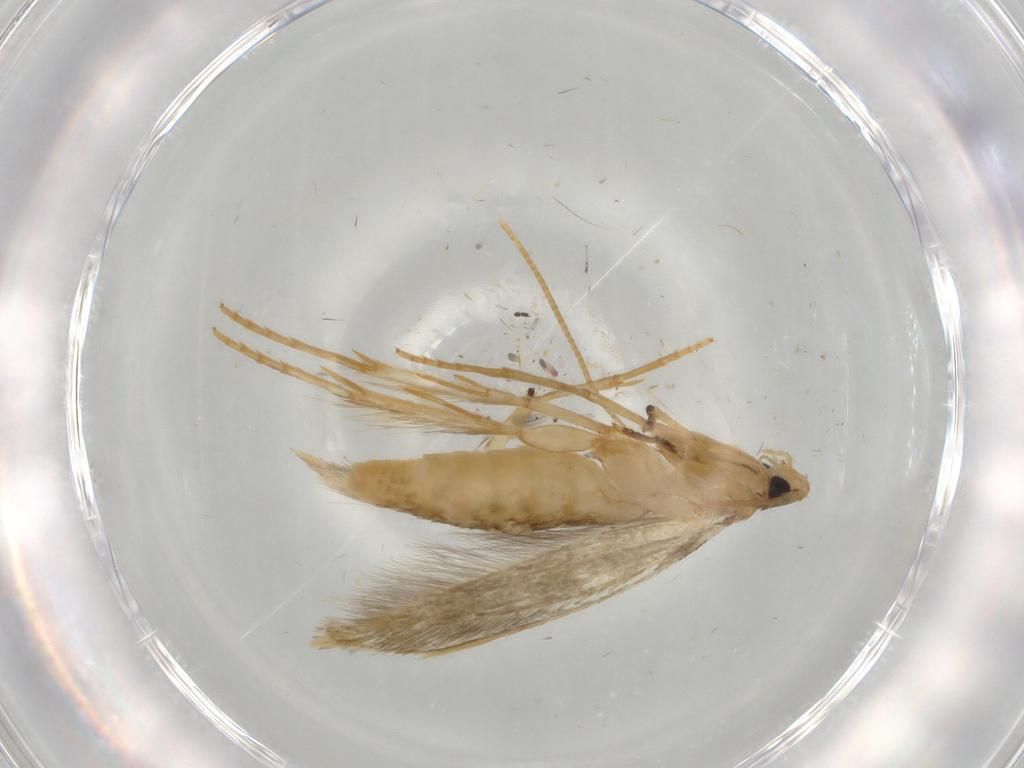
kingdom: Animalia
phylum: Arthropoda
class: Insecta
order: Lepidoptera
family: Tineidae
